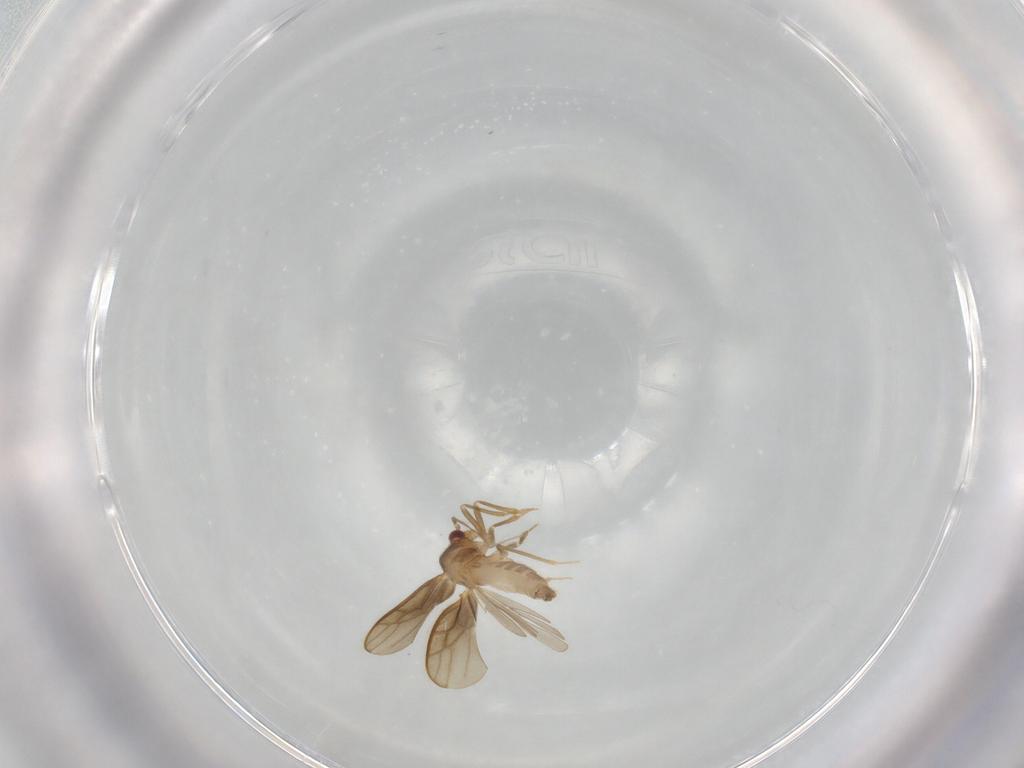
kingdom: Animalia
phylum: Arthropoda
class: Insecta
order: Hemiptera
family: Schizopteridae
